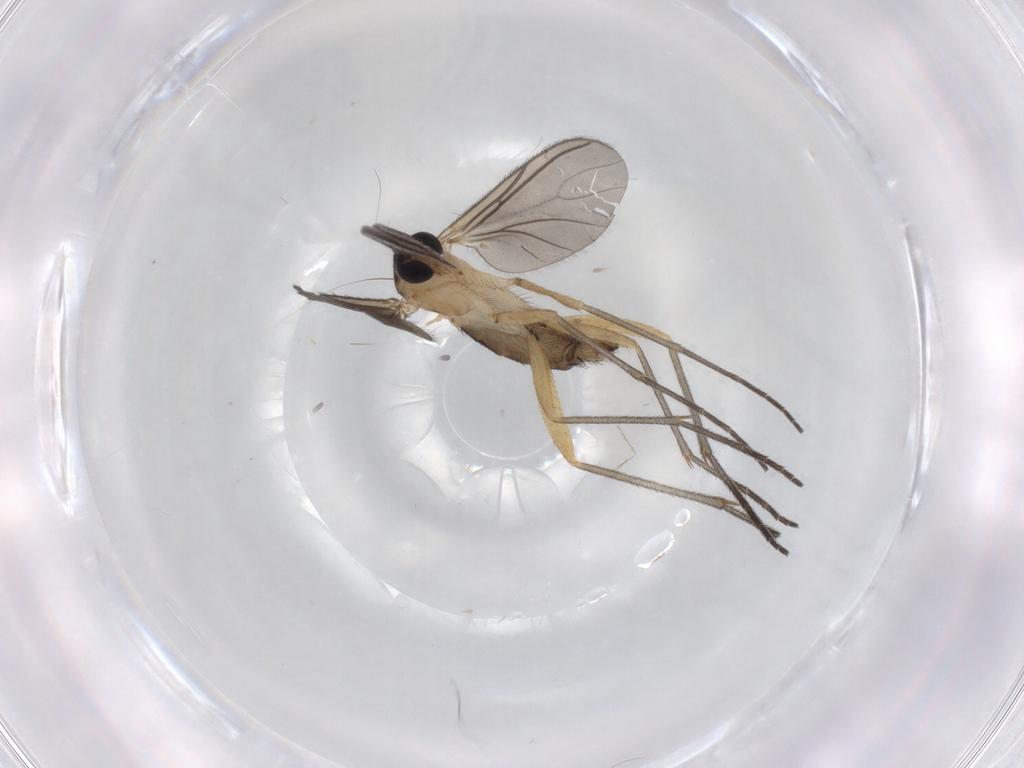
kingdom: Animalia
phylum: Arthropoda
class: Insecta
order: Diptera
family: Sciaridae
